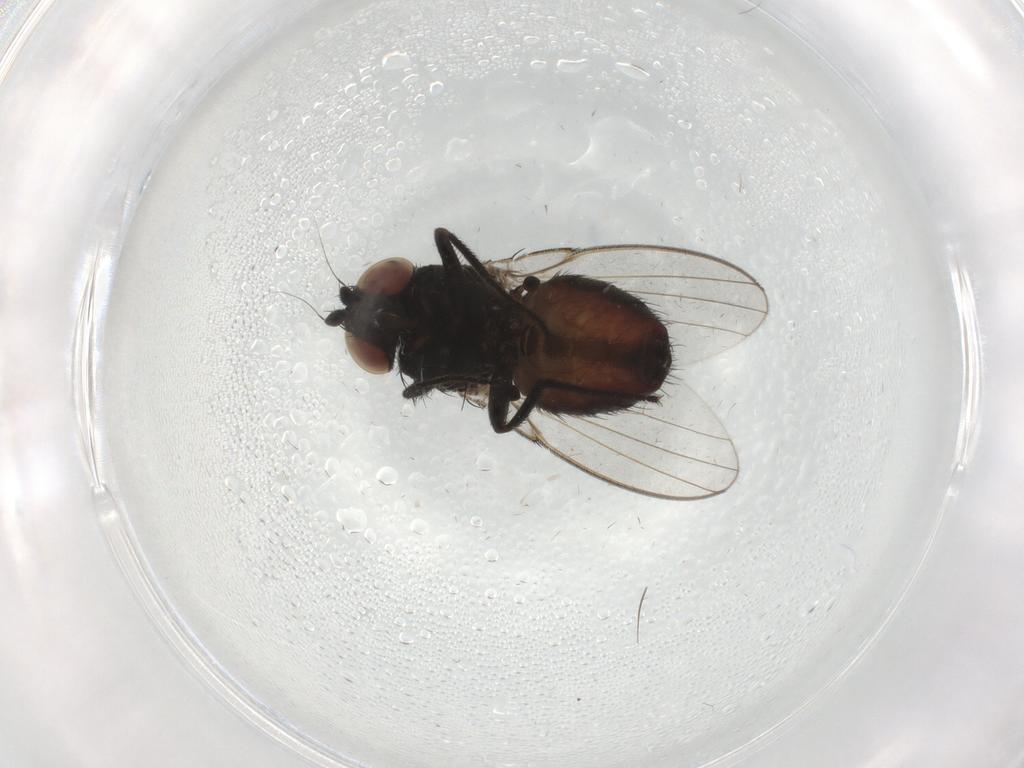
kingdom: Animalia
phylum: Arthropoda
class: Insecta
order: Diptera
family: Milichiidae
